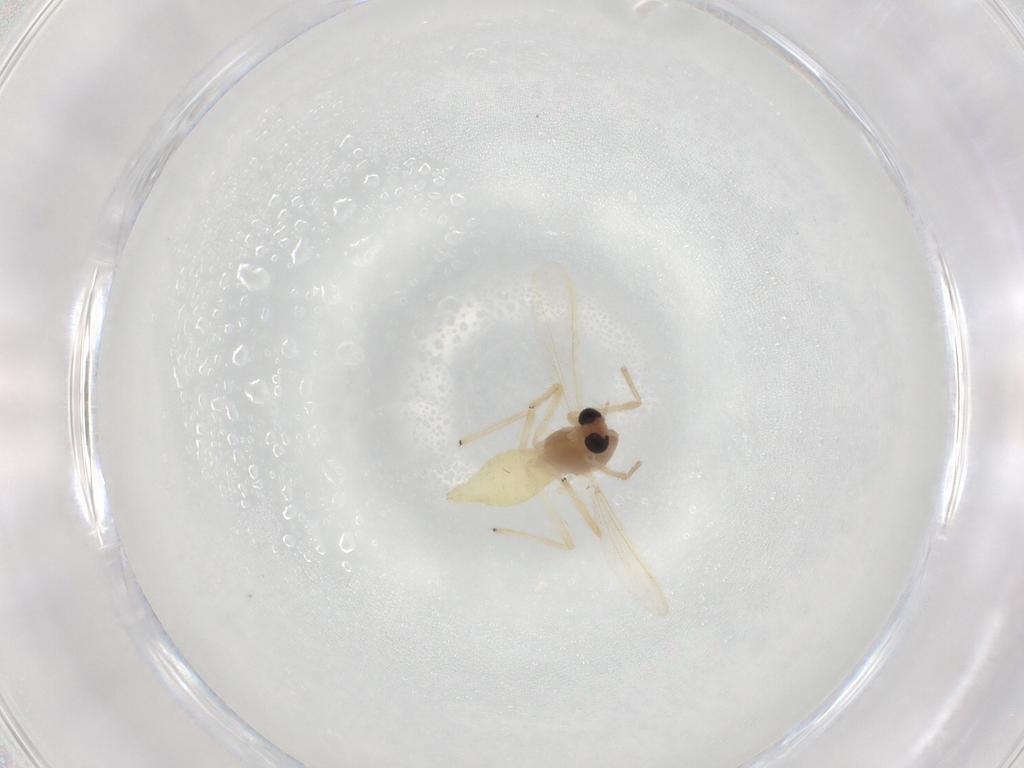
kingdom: Animalia
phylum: Arthropoda
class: Insecta
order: Diptera
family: Chironomidae
